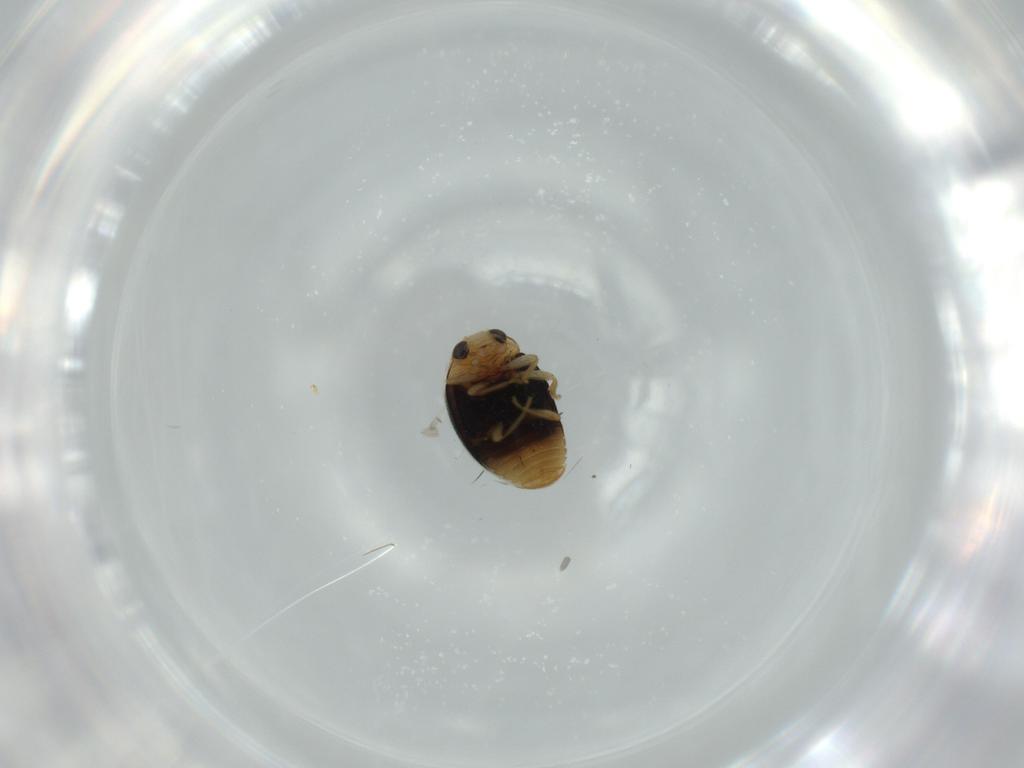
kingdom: Animalia
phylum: Arthropoda
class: Insecta
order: Coleoptera
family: Coccinellidae
